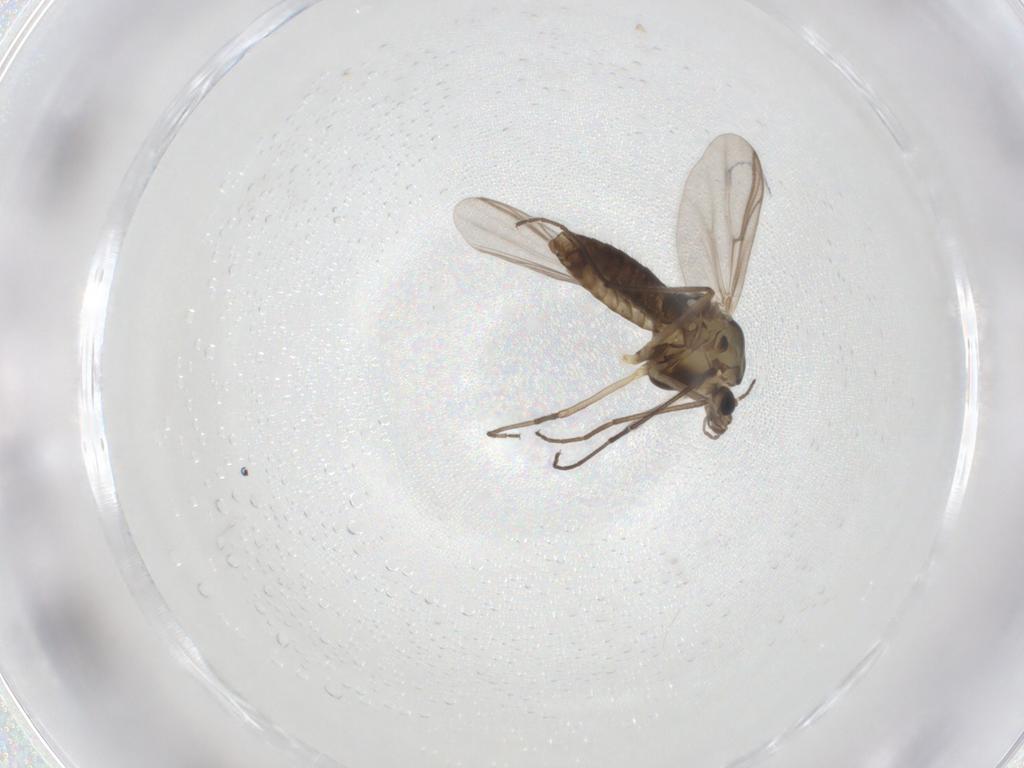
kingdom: Animalia
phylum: Arthropoda
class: Insecta
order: Diptera
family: Chironomidae
